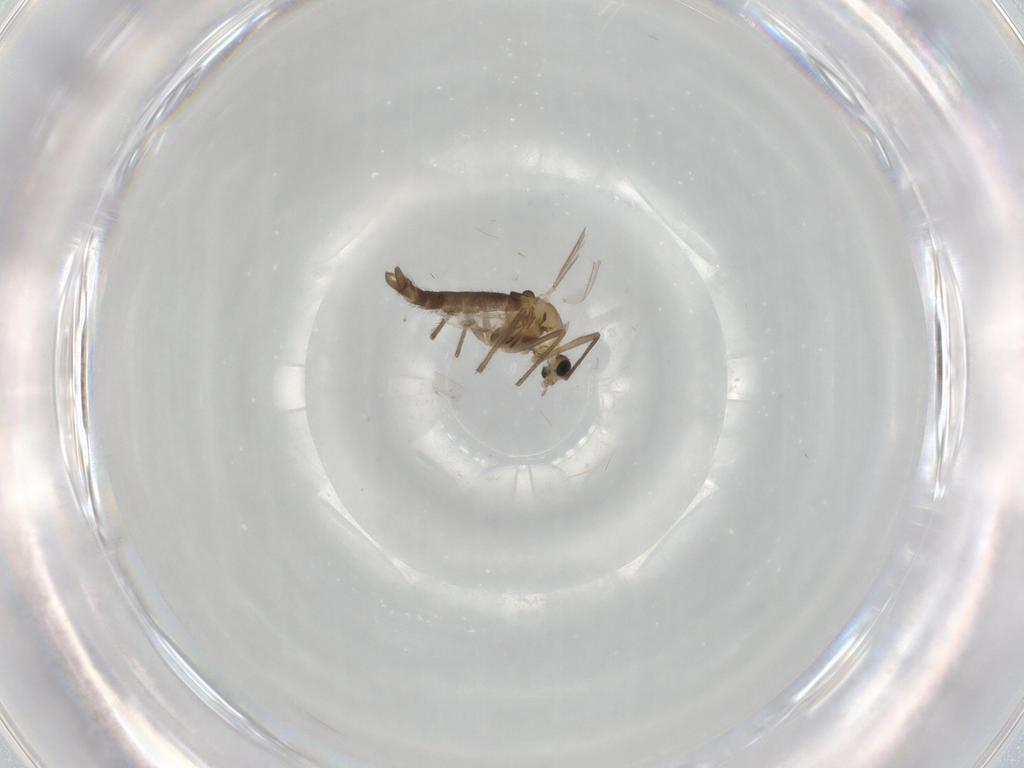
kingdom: Animalia
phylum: Arthropoda
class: Insecta
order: Diptera
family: Chironomidae
